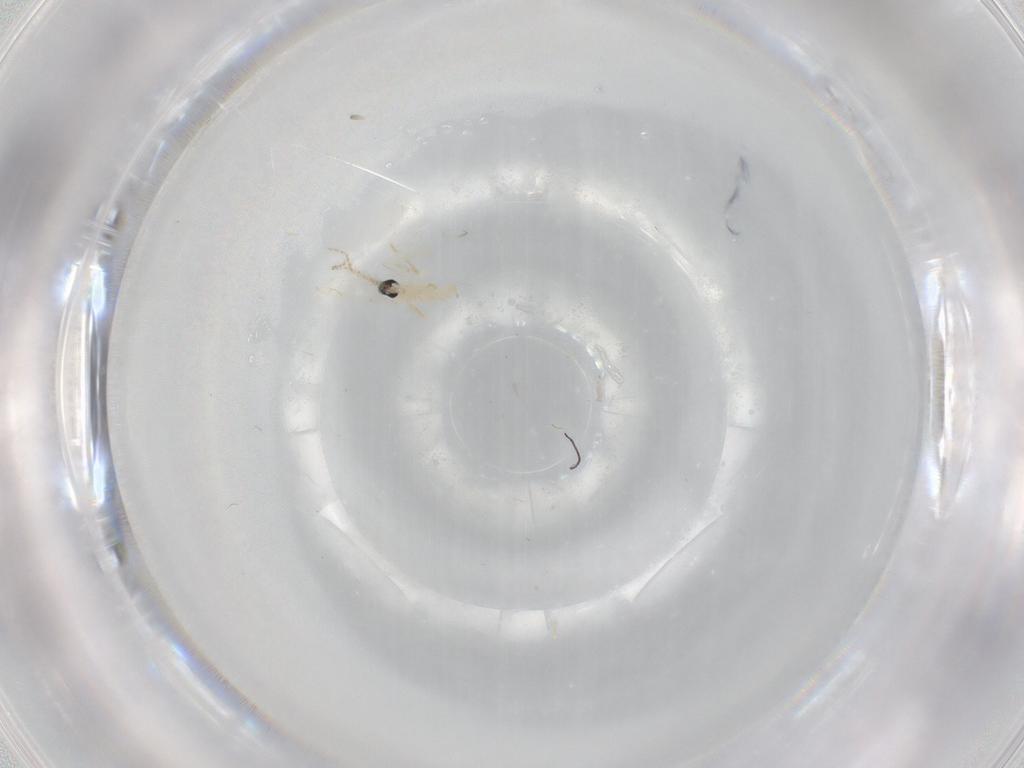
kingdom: Animalia
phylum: Arthropoda
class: Insecta
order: Diptera
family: Cecidomyiidae
